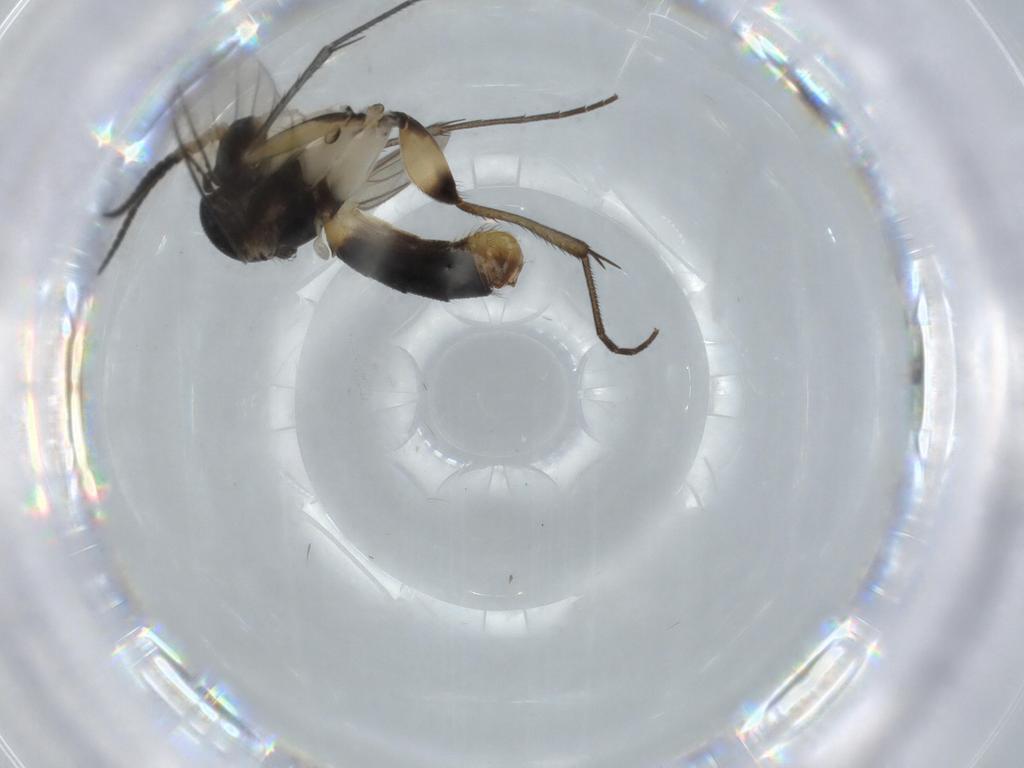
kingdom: Animalia
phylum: Arthropoda
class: Insecta
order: Diptera
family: Ceratopogonidae
